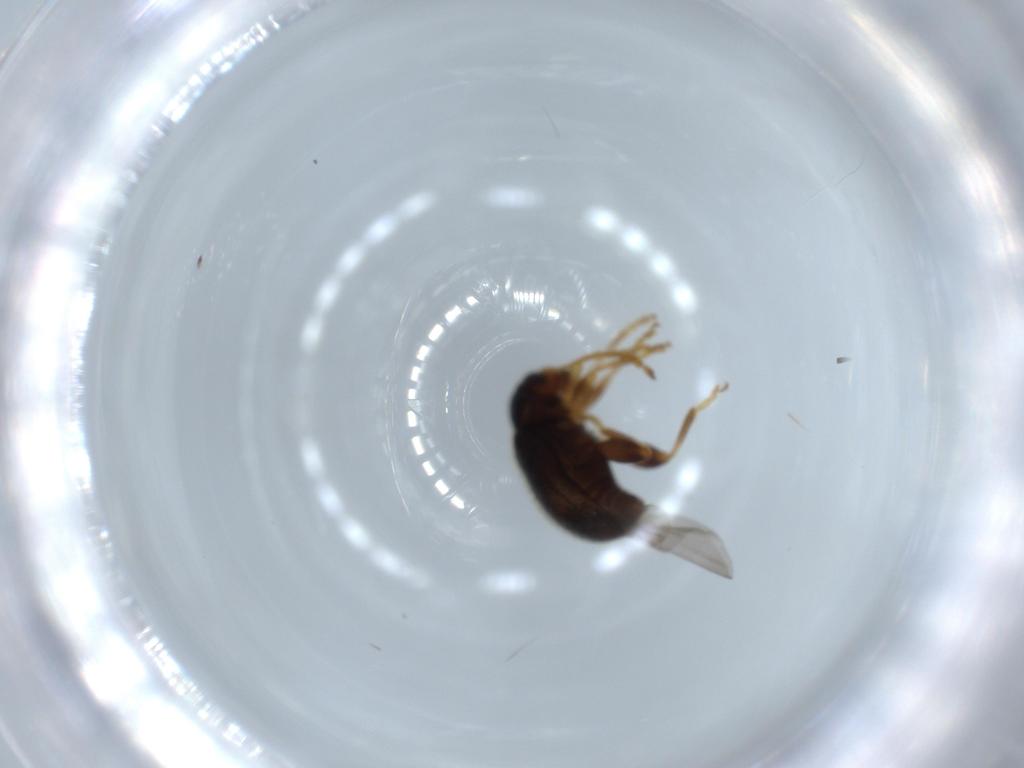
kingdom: Animalia
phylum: Arthropoda
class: Insecta
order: Coleoptera
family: Chrysomelidae
